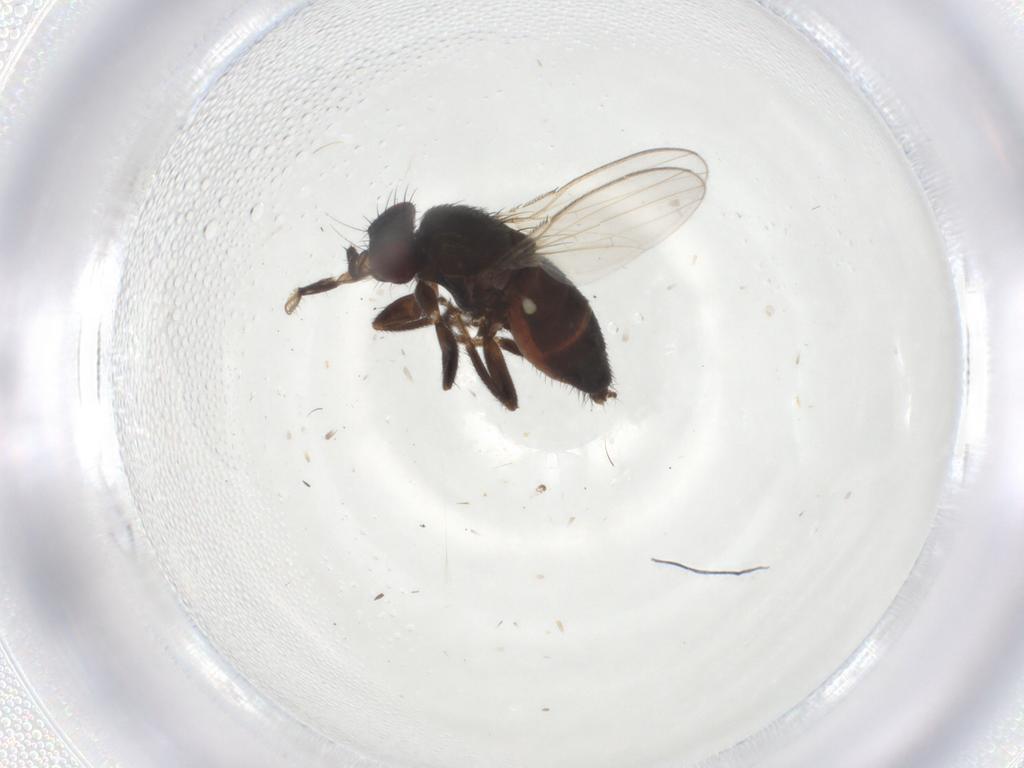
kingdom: Animalia
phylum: Arthropoda
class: Insecta
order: Diptera
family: Milichiidae
